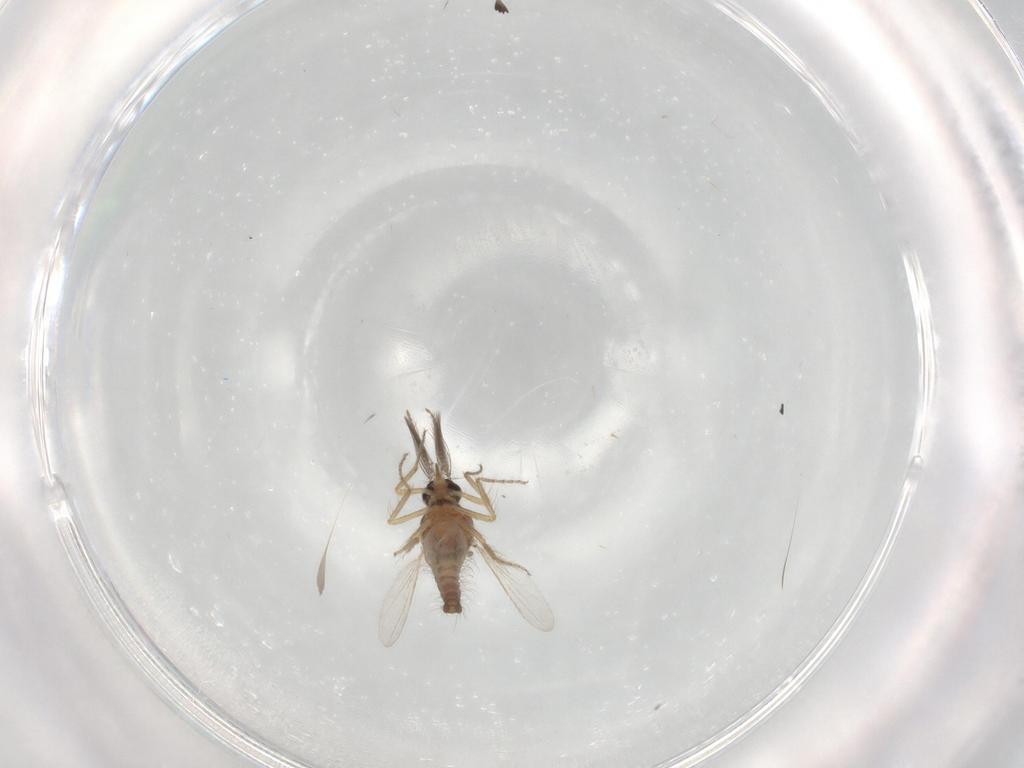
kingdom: Animalia
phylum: Arthropoda
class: Insecta
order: Diptera
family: Ceratopogonidae
